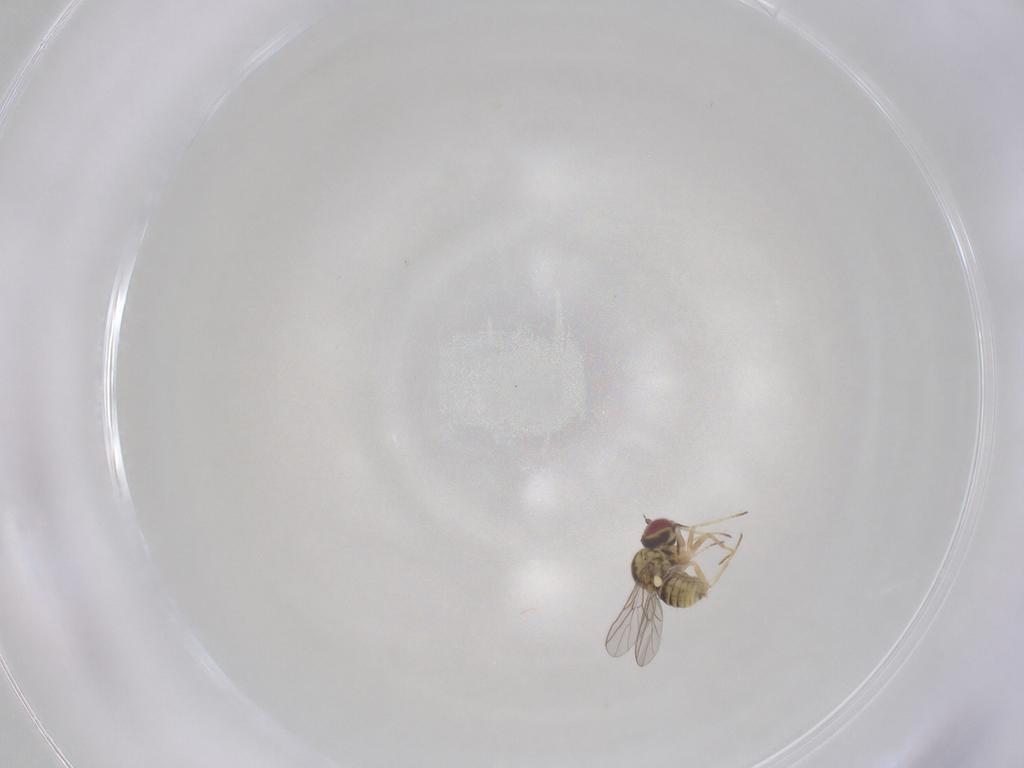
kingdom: Animalia
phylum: Arthropoda
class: Insecta
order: Diptera
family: Bombyliidae
